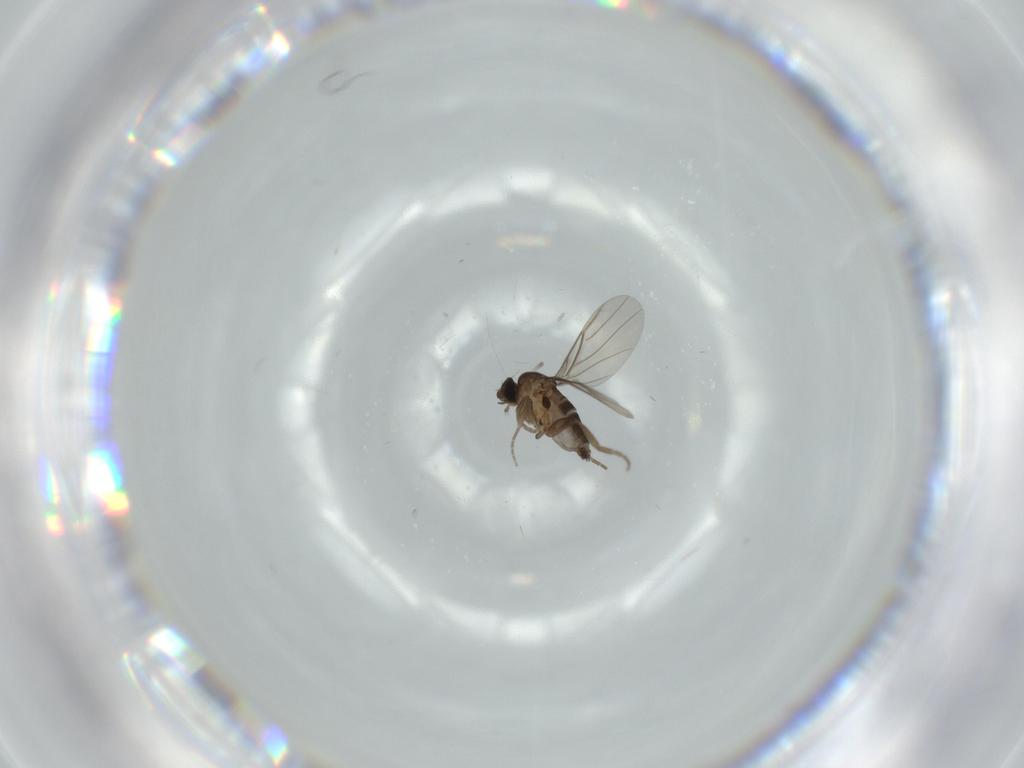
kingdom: Animalia
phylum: Arthropoda
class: Insecta
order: Diptera
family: Phoridae
